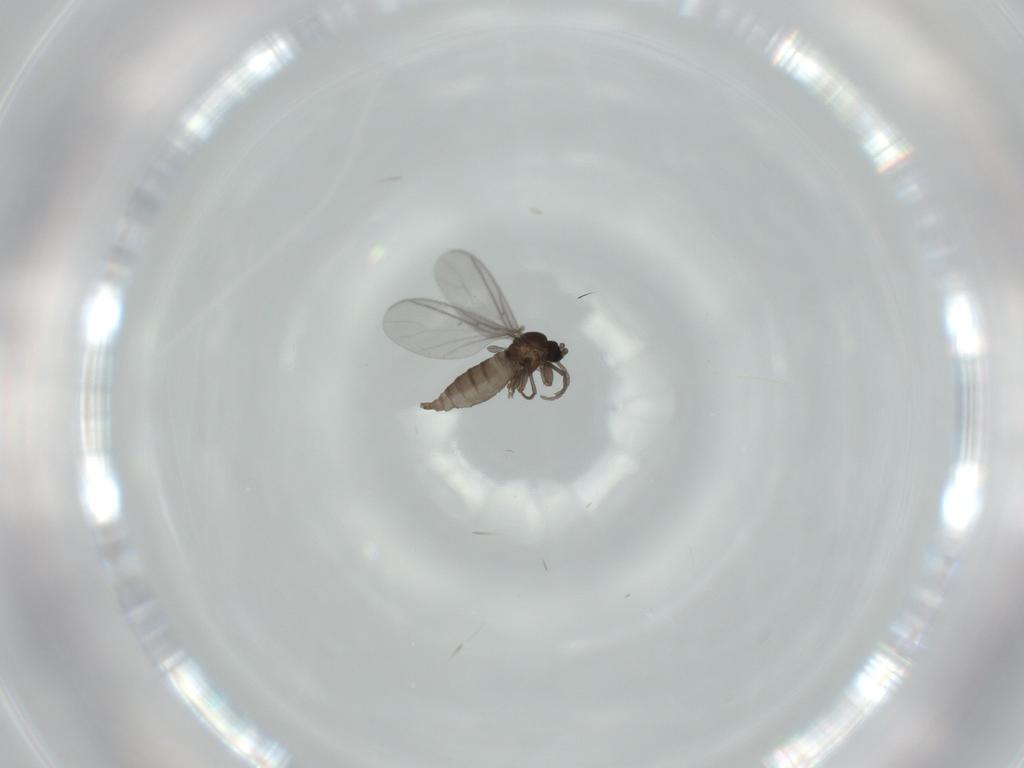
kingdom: Animalia
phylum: Arthropoda
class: Insecta
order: Diptera
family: Sciaridae
